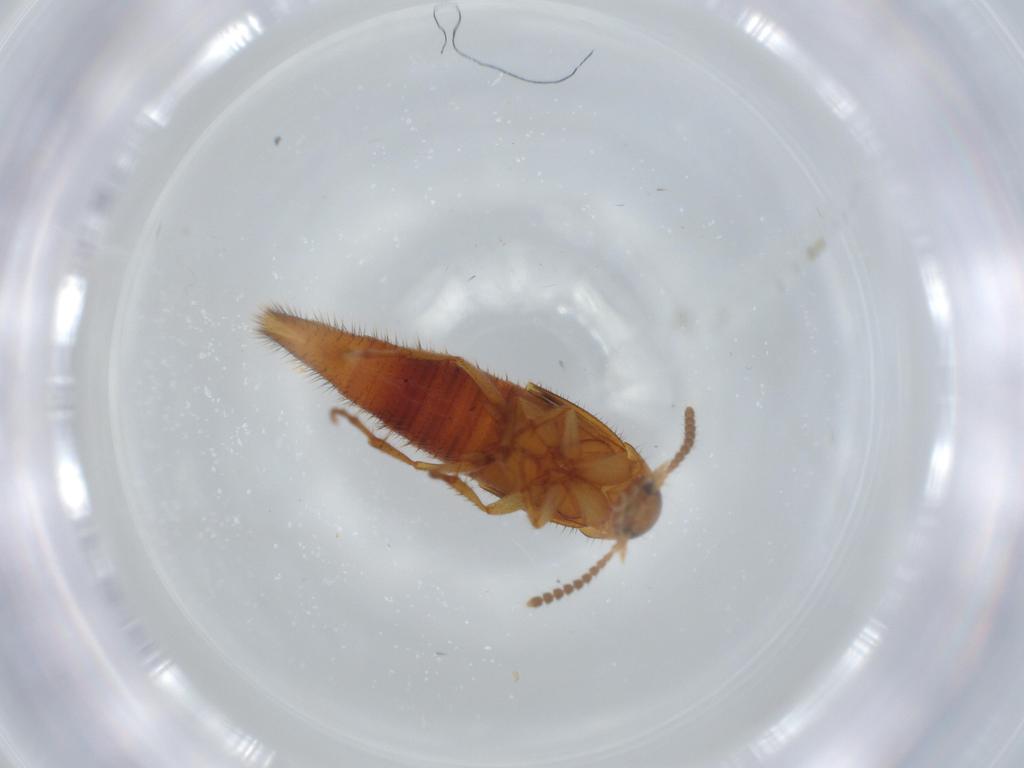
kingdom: Animalia
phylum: Arthropoda
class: Insecta
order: Coleoptera
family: Staphylinidae
